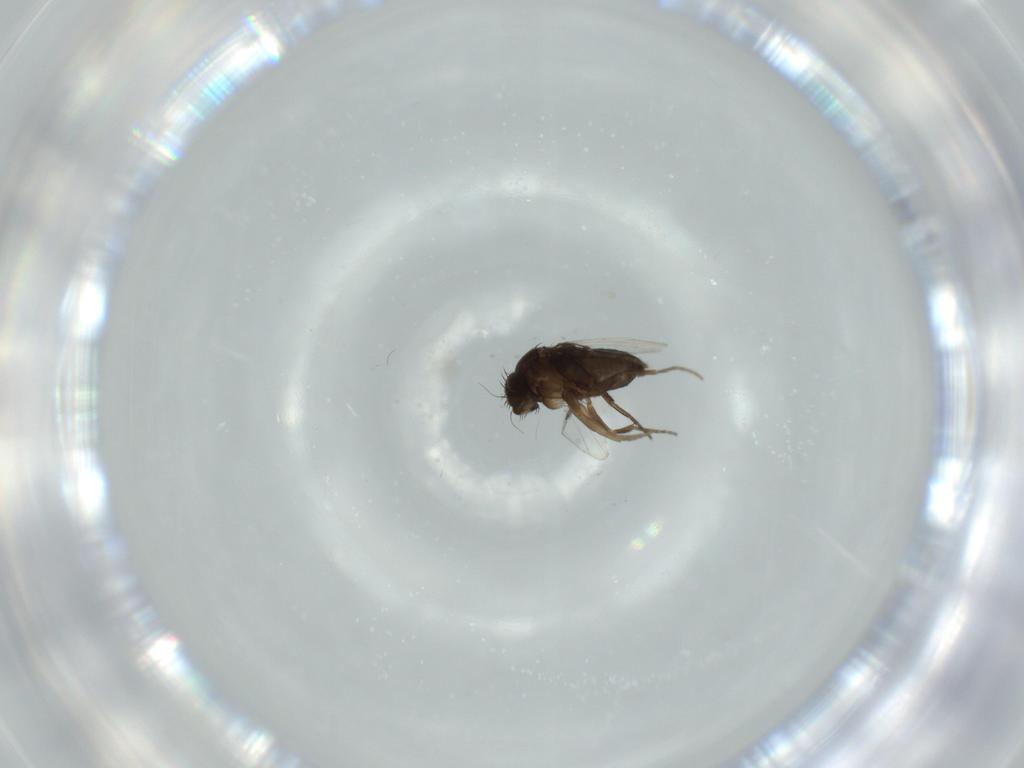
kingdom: Animalia
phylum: Arthropoda
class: Insecta
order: Diptera
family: Phoridae
